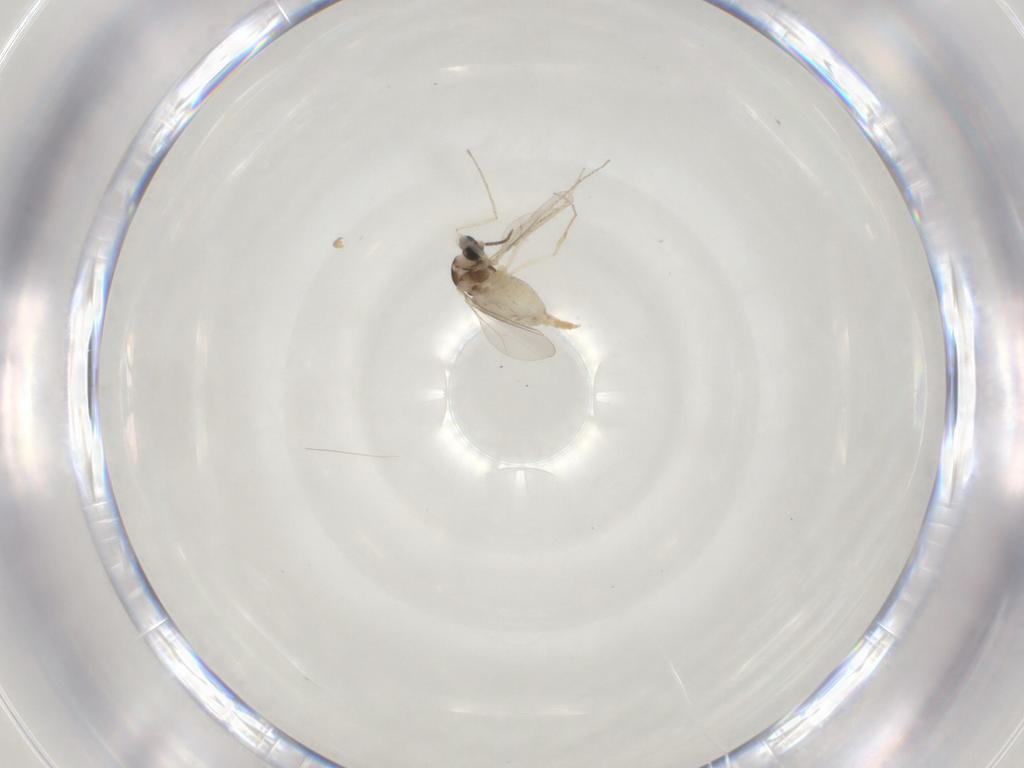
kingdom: Animalia
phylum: Arthropoda
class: Insecta
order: Diptera
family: Cecidomyiidae
